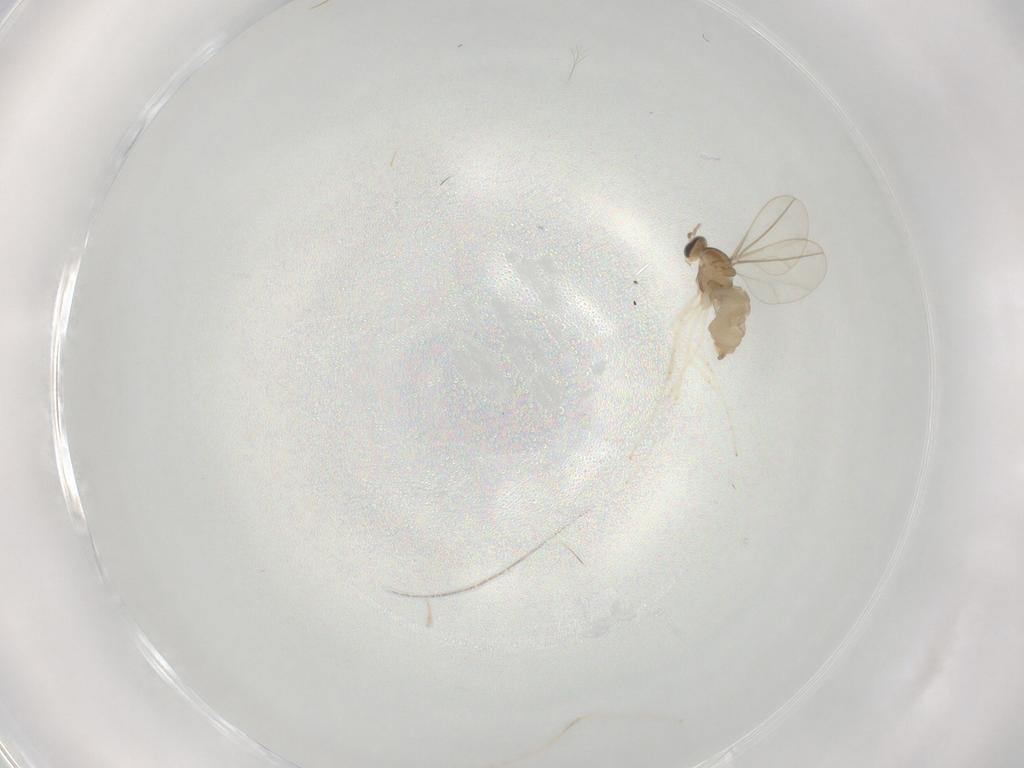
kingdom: Animalia
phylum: Arthropoda
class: Insecta
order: Diptera
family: Cecidomyiidae
